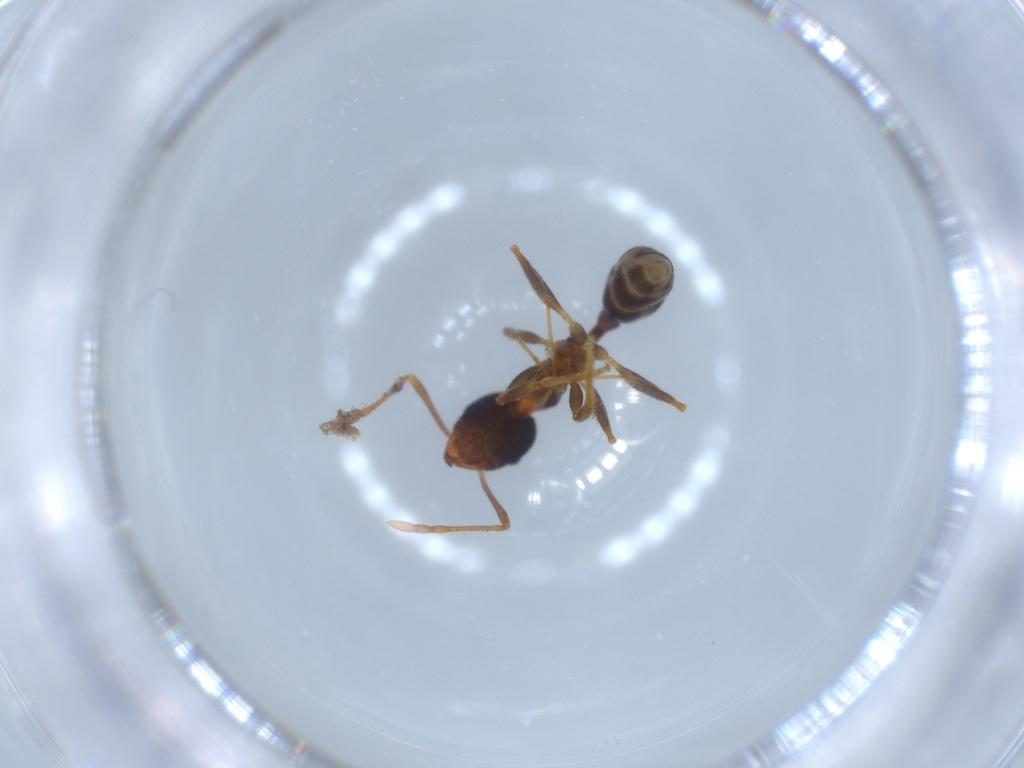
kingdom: Animalia
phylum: Arthropoda
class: Insecta
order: Hymenoptera
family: Formicidae
